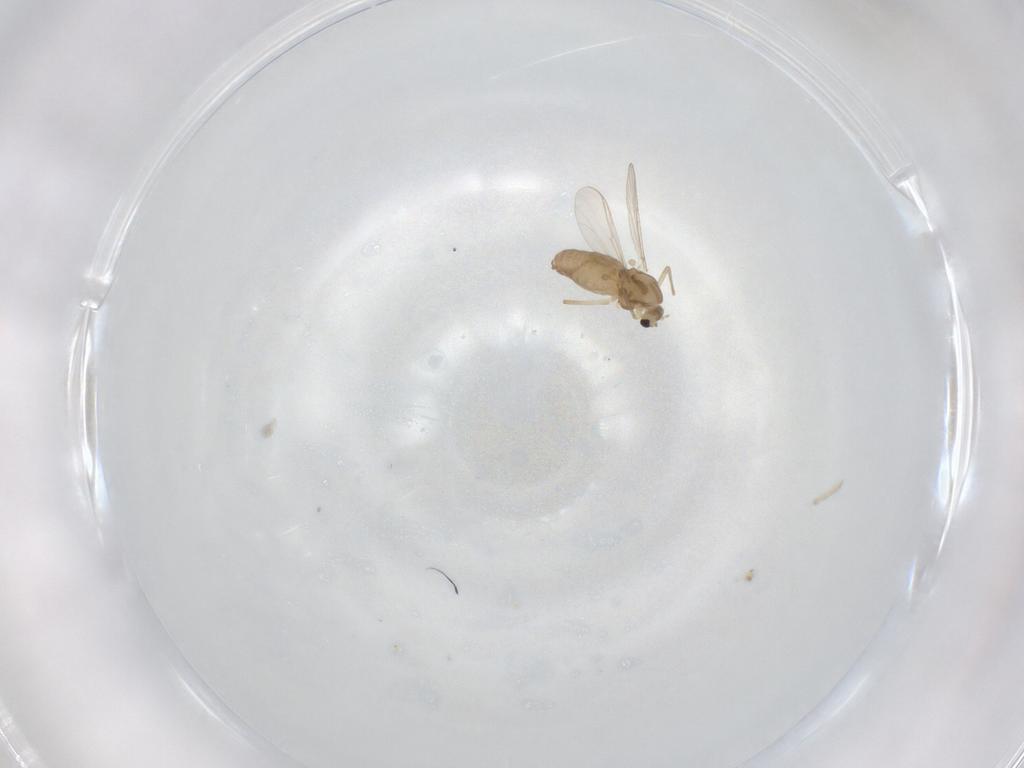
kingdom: Animalia
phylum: Arthropoda
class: Insecta
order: Diptera
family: Chironomidae
